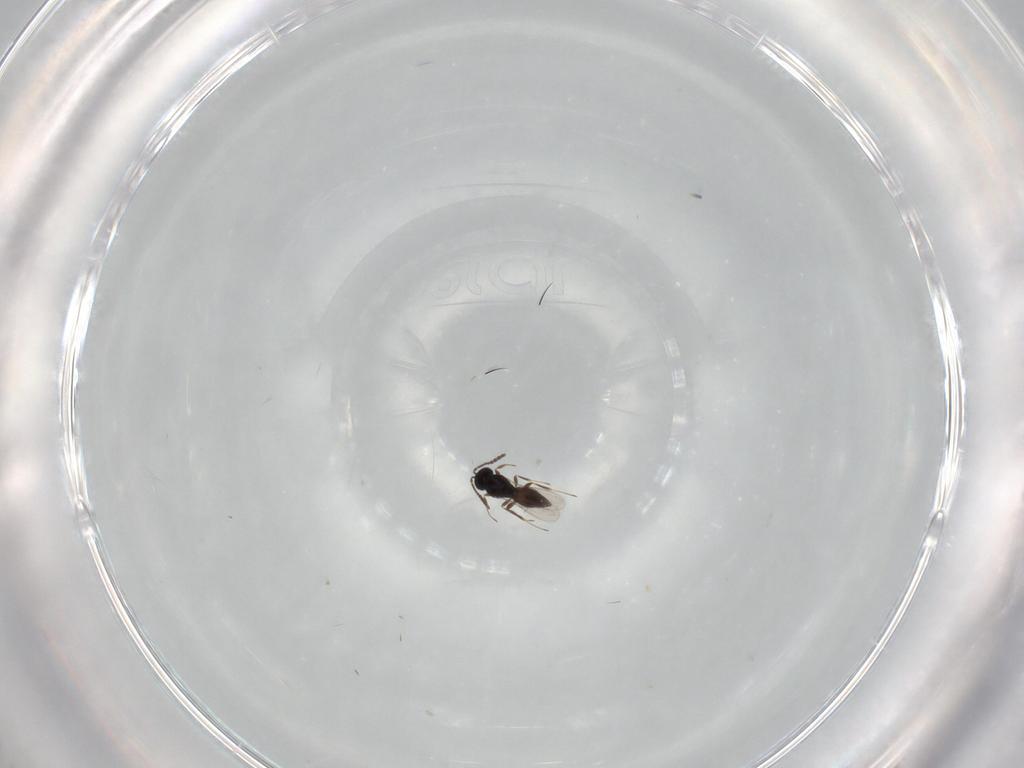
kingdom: Animalia
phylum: Arthropoda
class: Insecta
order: Hymenoptera
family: Scelionidae
